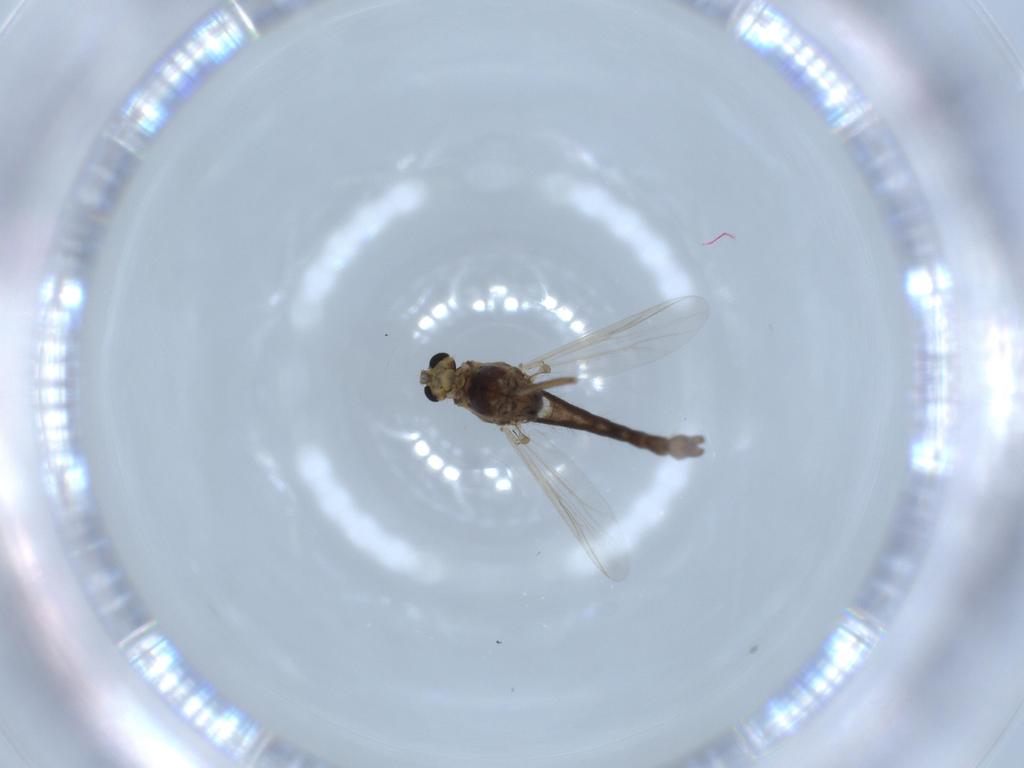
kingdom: Animalia
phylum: Arthropoda
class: Insecta
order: Diptera
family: Chironomidae
